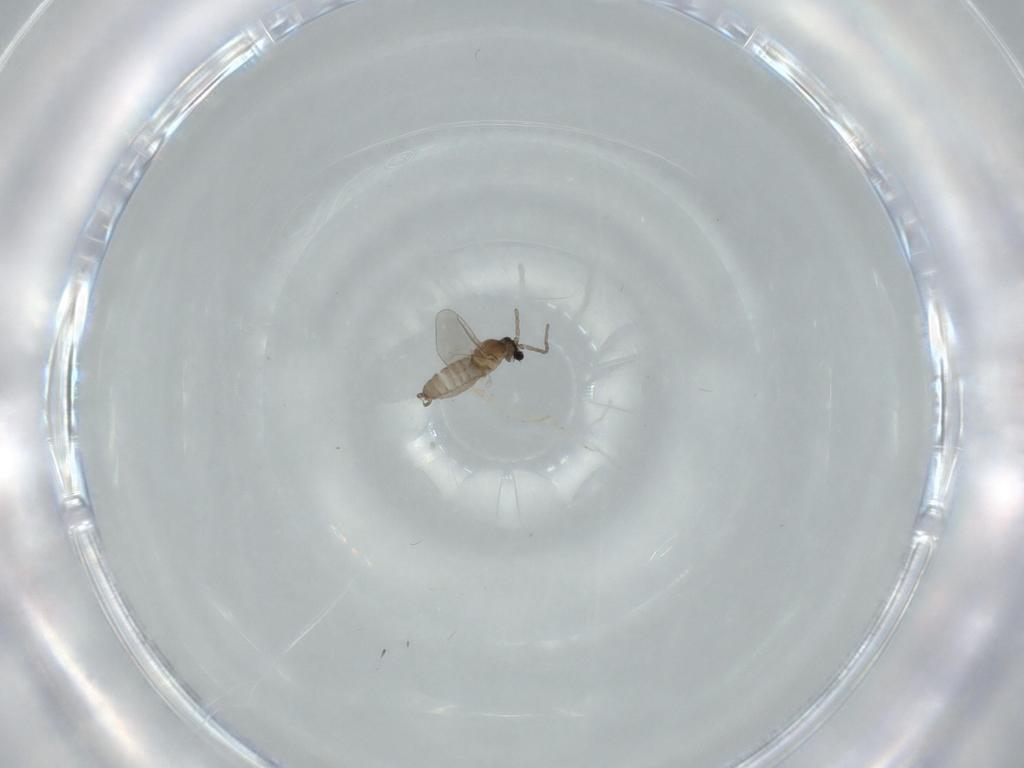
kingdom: Animalia
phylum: Arthropoda
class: Insecta
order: Diptera
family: Cecidomyiidae
